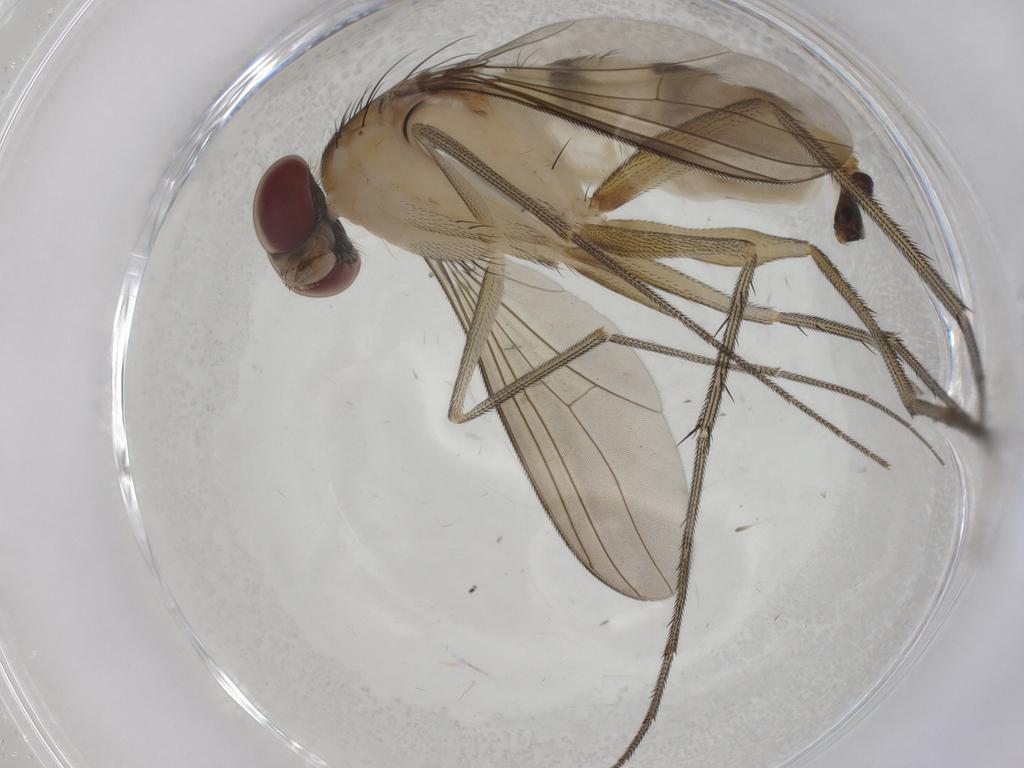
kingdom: Animalia
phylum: Arthropoda
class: Insecta
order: Diptera
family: Dolichopodidae
